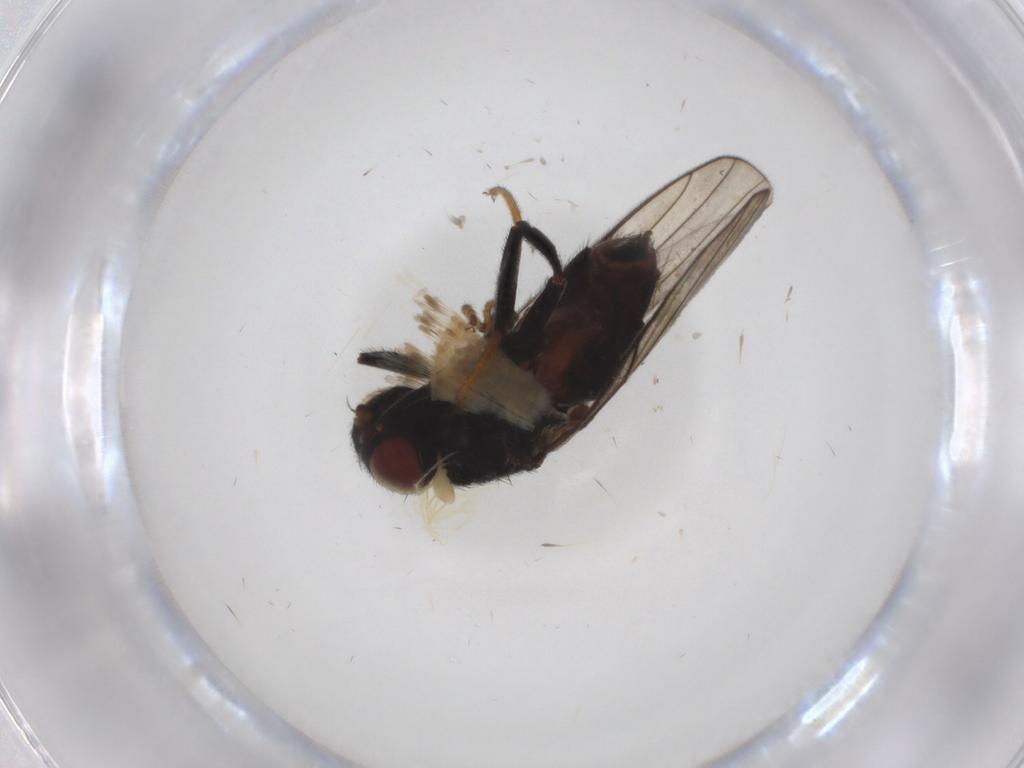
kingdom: Animalia
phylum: Arthropoda
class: Insecta
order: Diptera
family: Chloropidae
